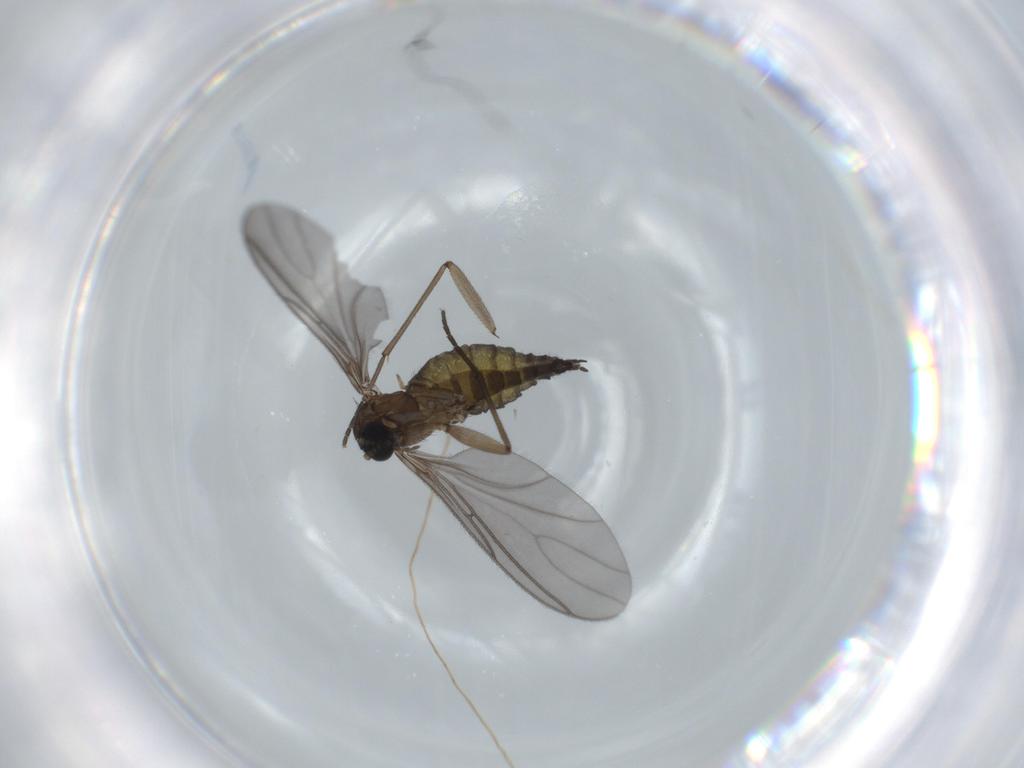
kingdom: Animalia
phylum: Arthropoda
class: Insecta
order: Diptera
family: Sciaridae
